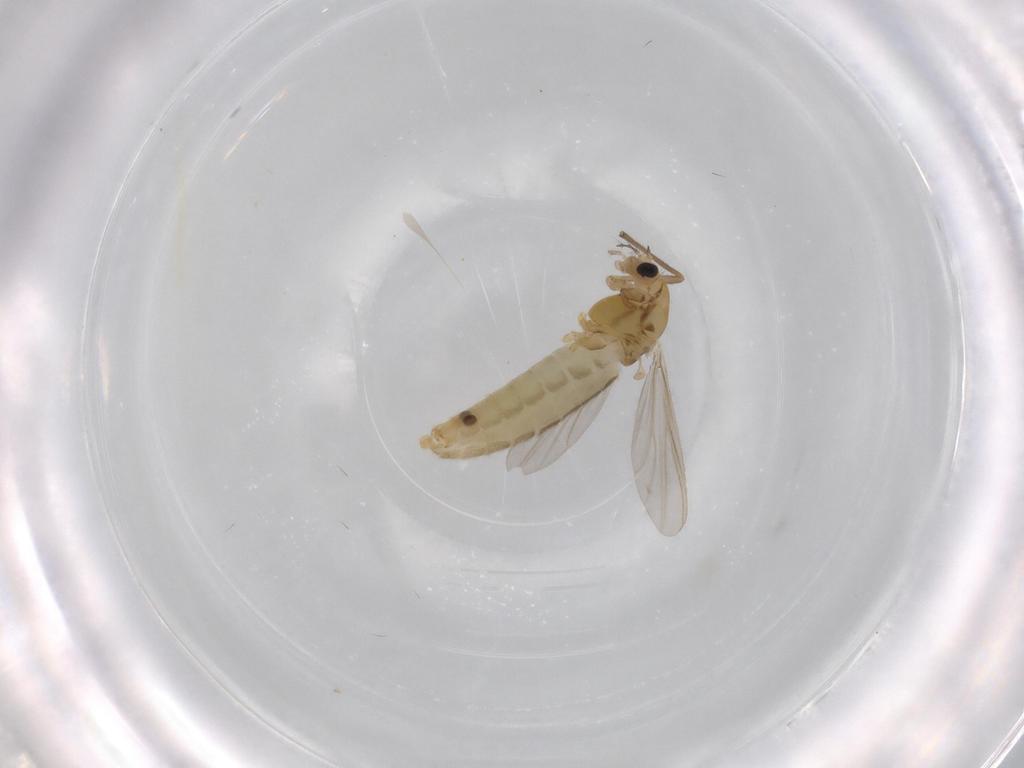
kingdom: Animalia
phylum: Arthropoda
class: Insecta
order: Diptera
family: Chironomidae
